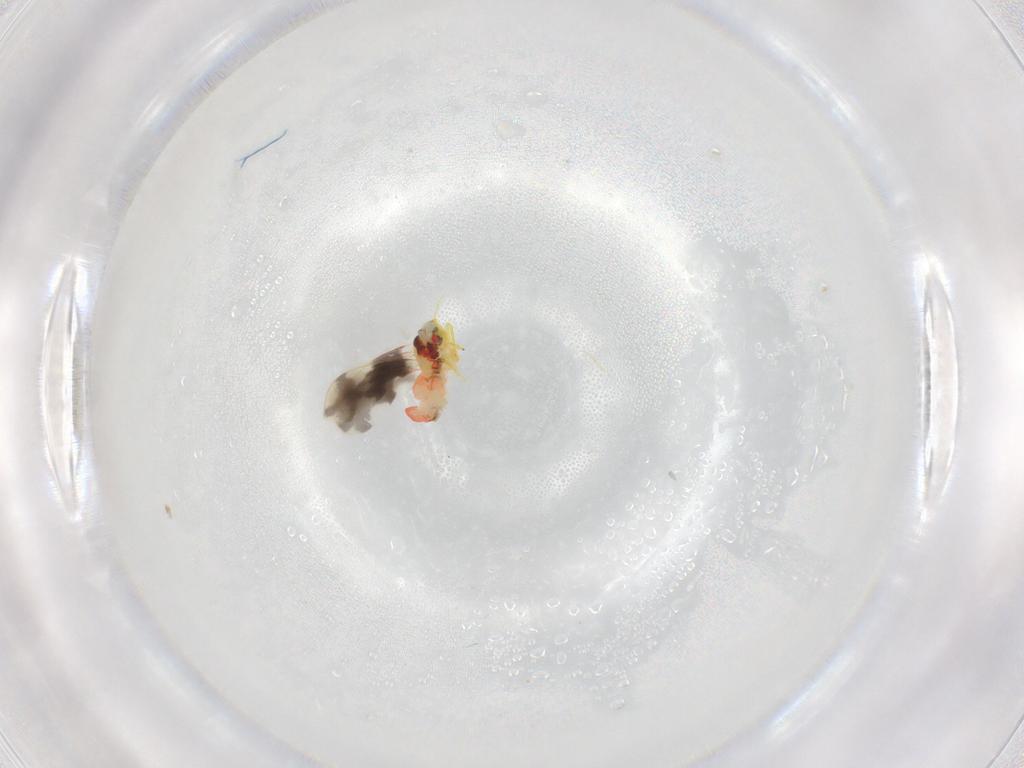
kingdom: Animalia
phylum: Arthropoda
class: Insecta
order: Hemiptera
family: Aleyrodidae
